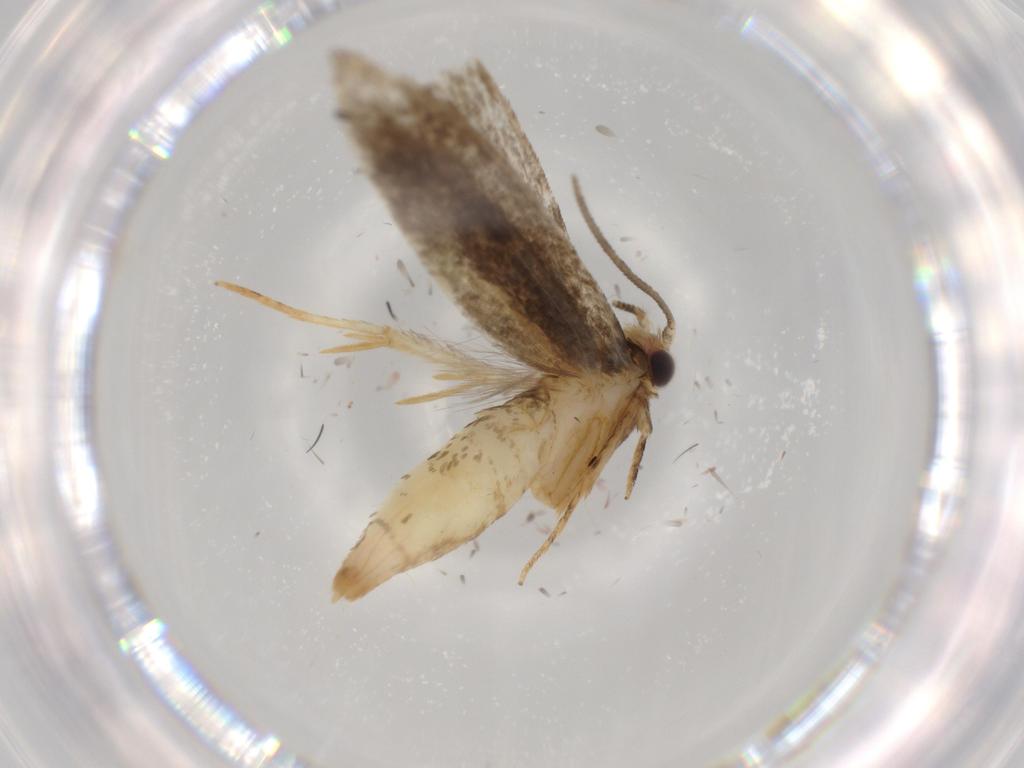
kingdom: Animalia
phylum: Arthropoda
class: Insecta
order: Lepidoptera
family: Tineidae
